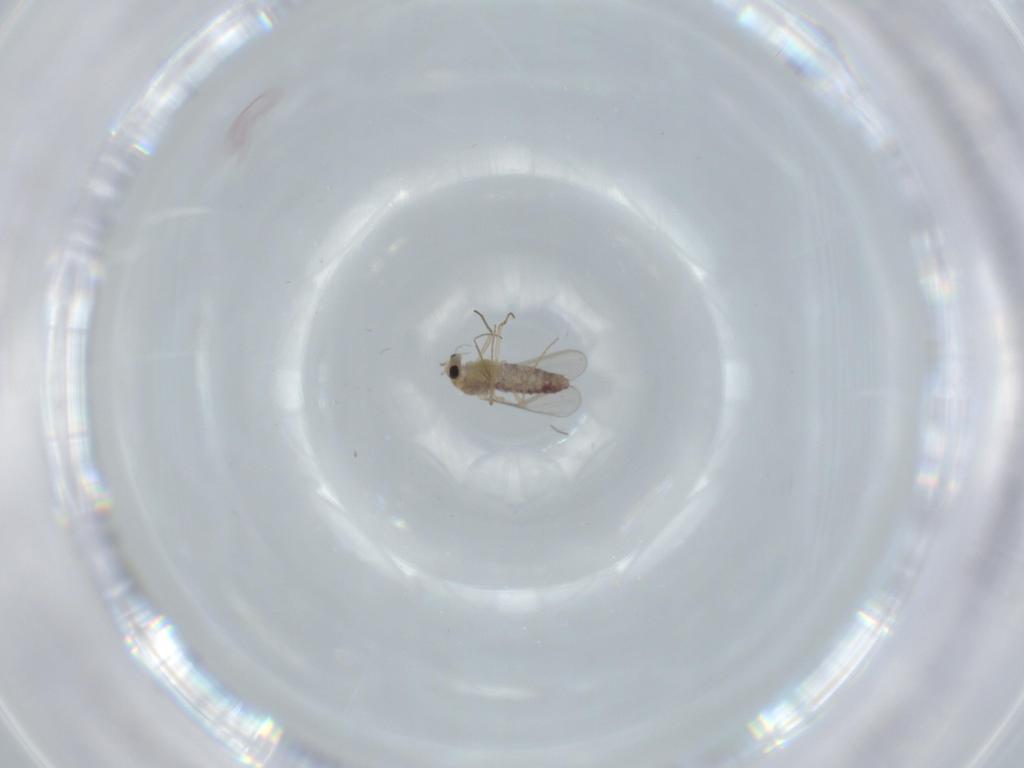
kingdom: Animalia
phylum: Arthropoda
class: Insecta
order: Diptera
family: Chironomidae
